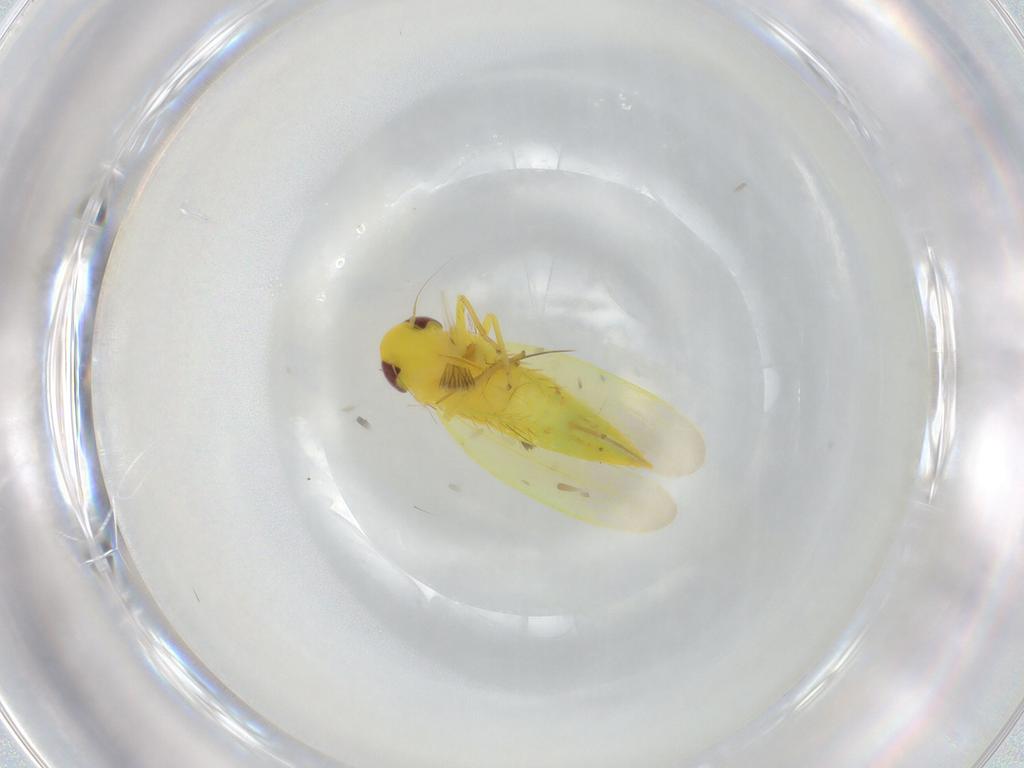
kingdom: Animalia
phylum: Arthropoda
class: Insecta
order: Hemiptera
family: Cicadellidae
